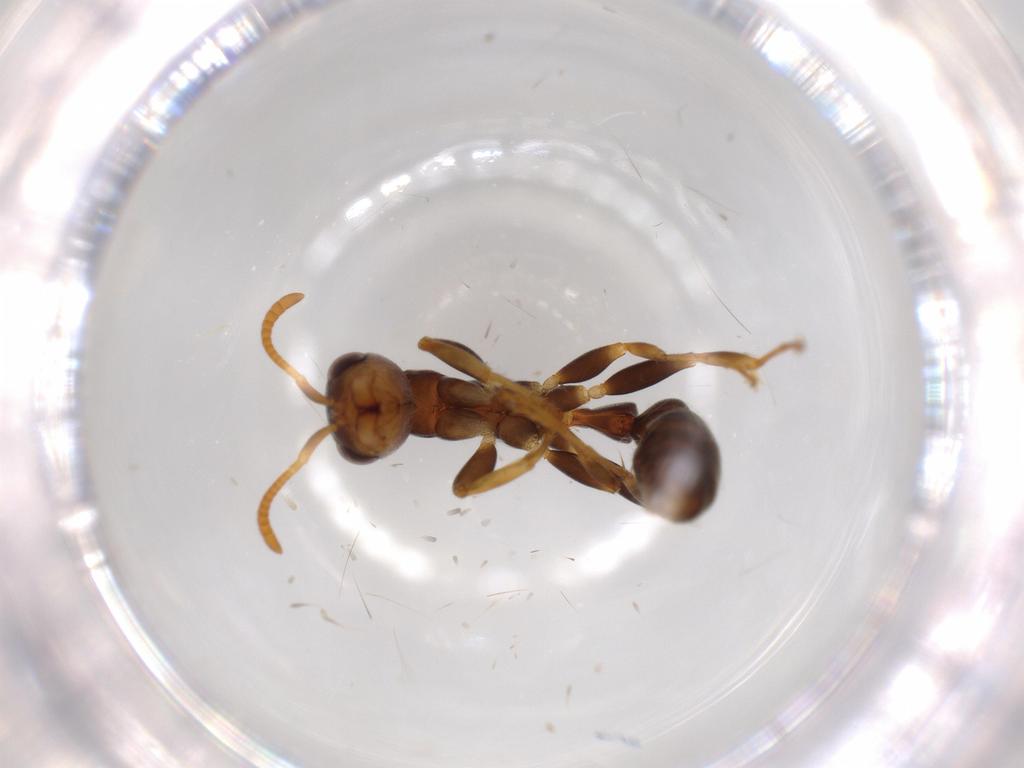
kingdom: Animalia
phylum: Arthropoda
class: Insecta
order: Hymenoptera
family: Formicidae
